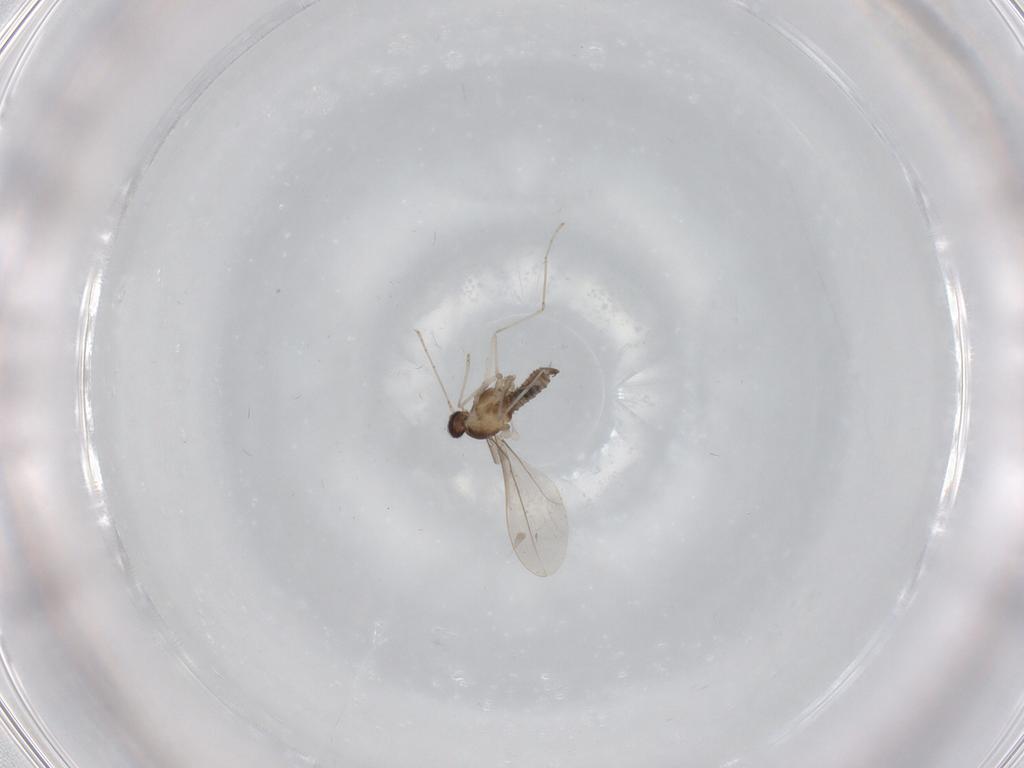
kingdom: Animalia
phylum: Arthropoda
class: Insecta
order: Diptera
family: Cecidomyiidae
